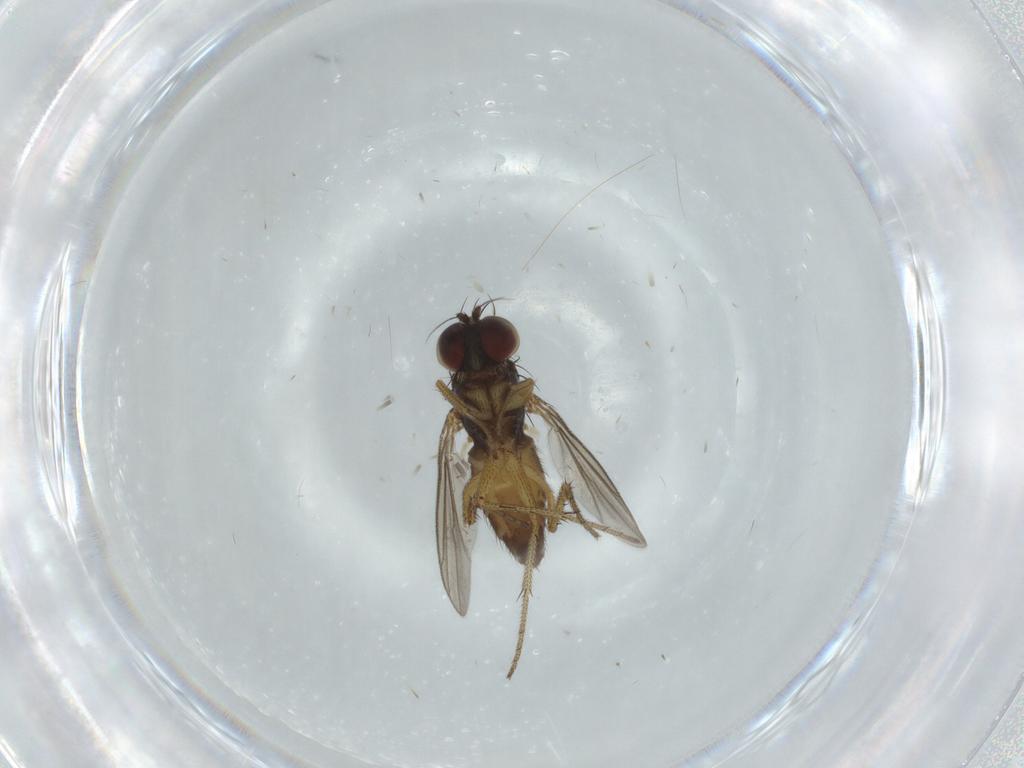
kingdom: Animalia
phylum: Arthropoda
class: Insecta
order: Diptera
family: Dolichopodidae
